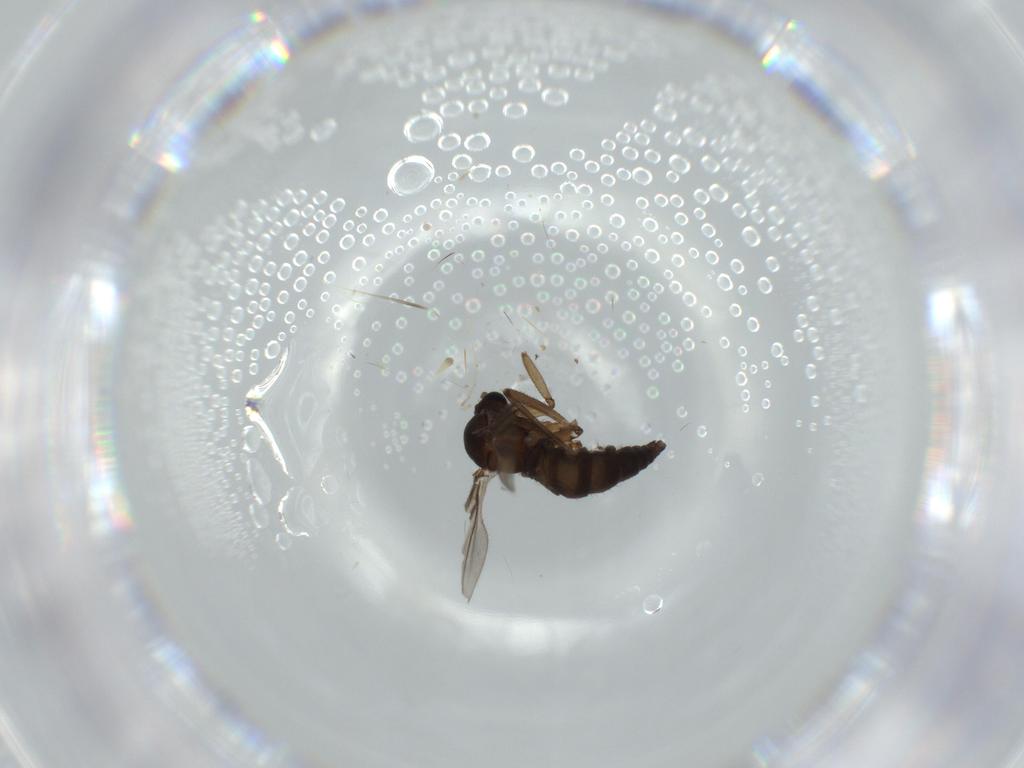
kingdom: Animalia
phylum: Arthropoda
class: Insecta
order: Diptera
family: Sciaridae
